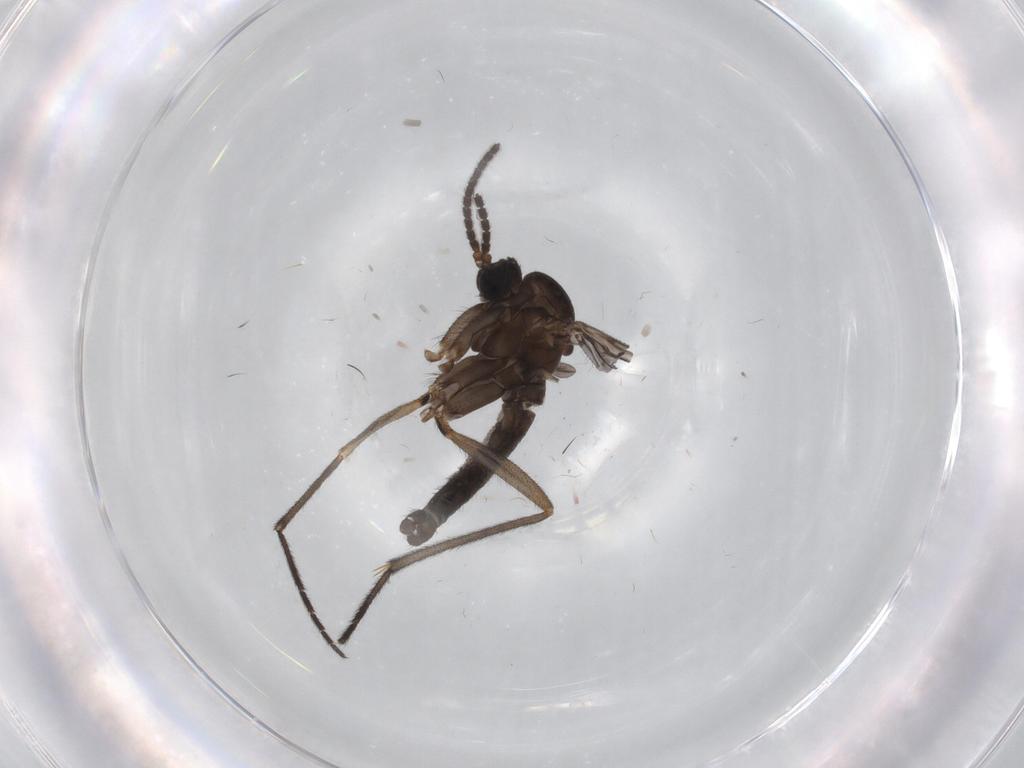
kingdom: Animalia
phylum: Arthropoda
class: Insecta
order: Diptera
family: Sciaridae
